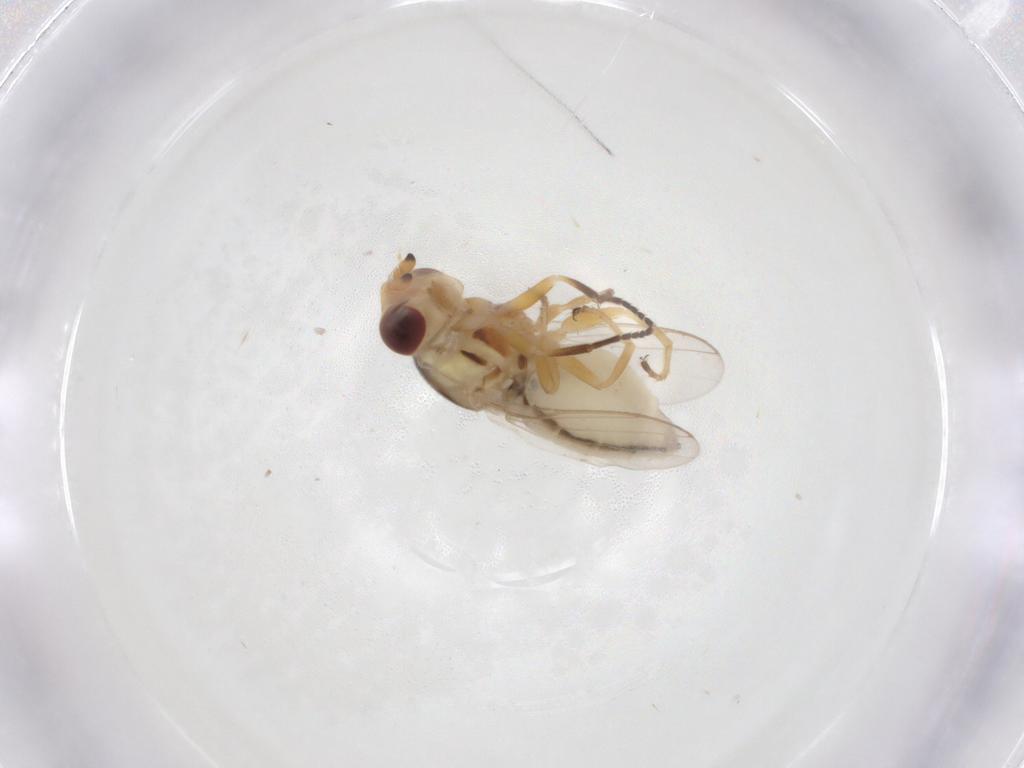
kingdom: Animalia
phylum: Arthropoda
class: Insecta
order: Diptera
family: Chloropidae
